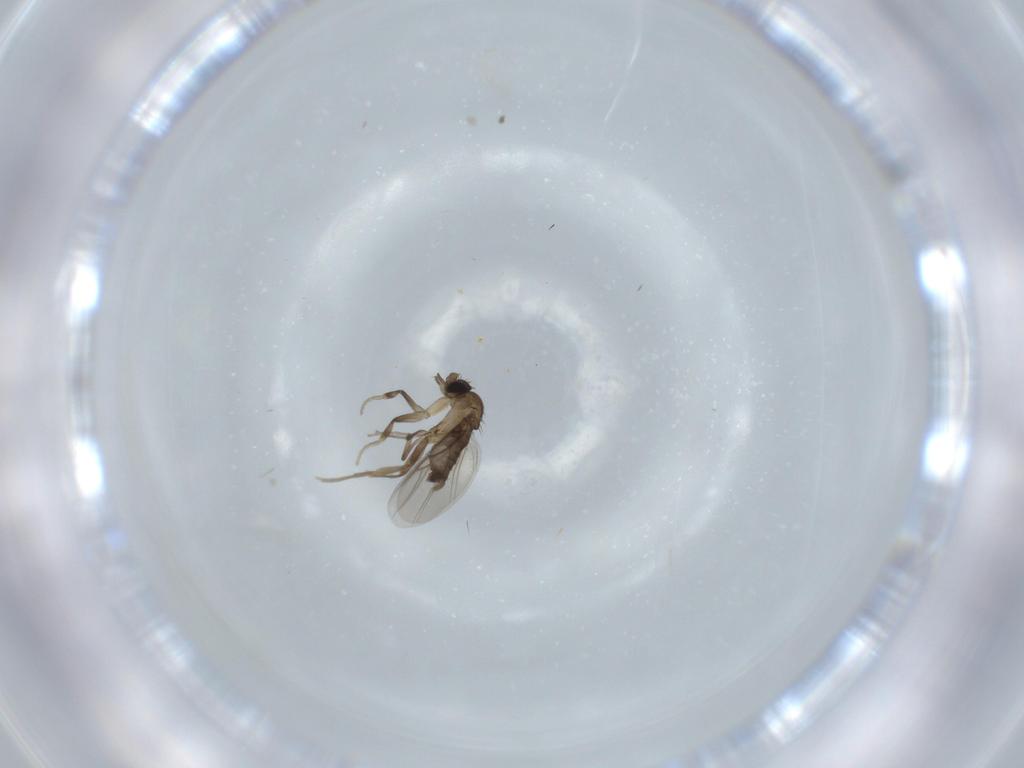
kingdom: Animalia
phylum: Arthropoda
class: Insecta
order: Diptera
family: Phoridae
